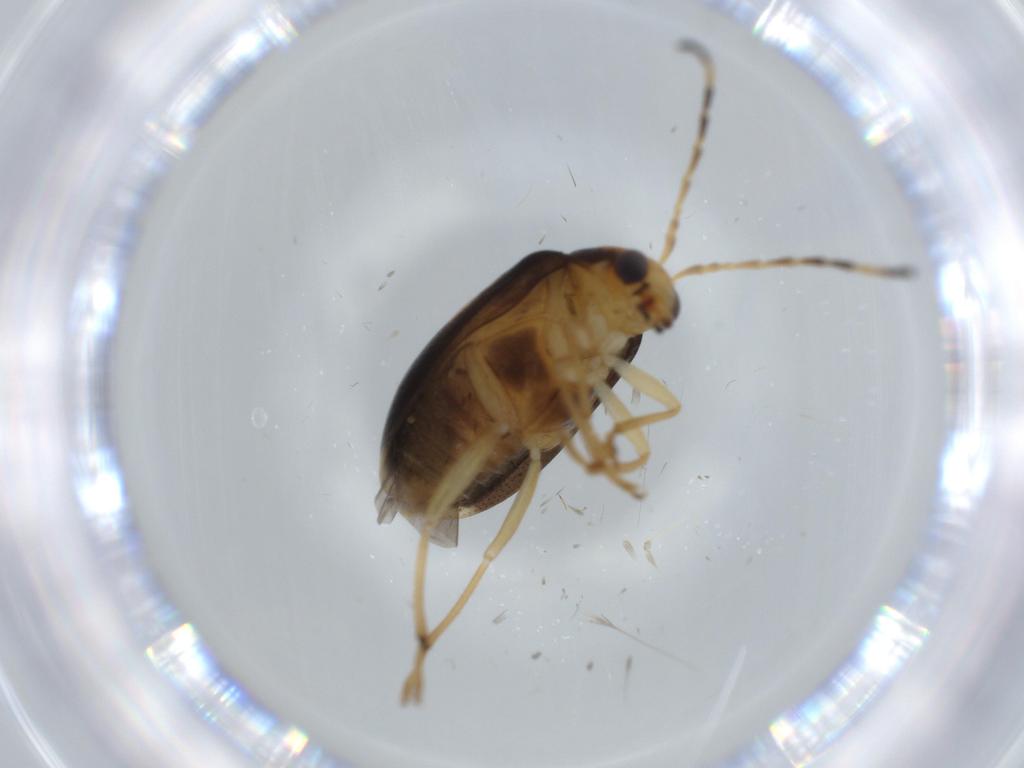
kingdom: Animalia
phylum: Arthropoda
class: Insecta
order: Coleoptera
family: Chrysomelidae
